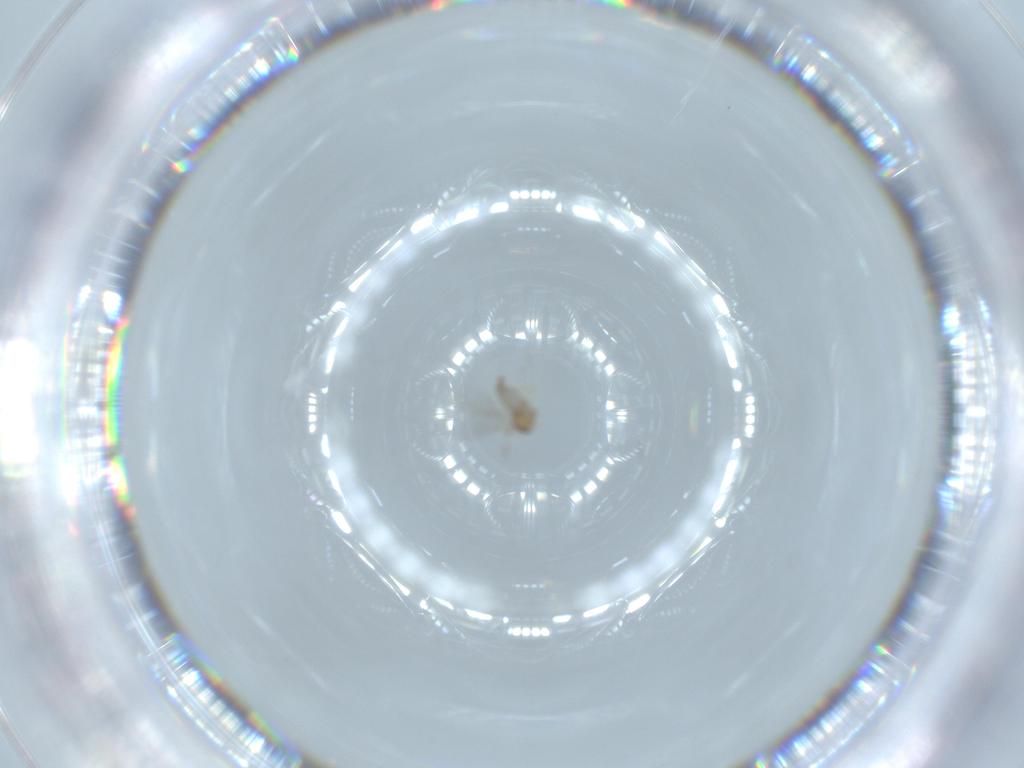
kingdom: Animalia
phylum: Arthropoda
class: Insecta
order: Diptera
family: Cecidomyiidae
